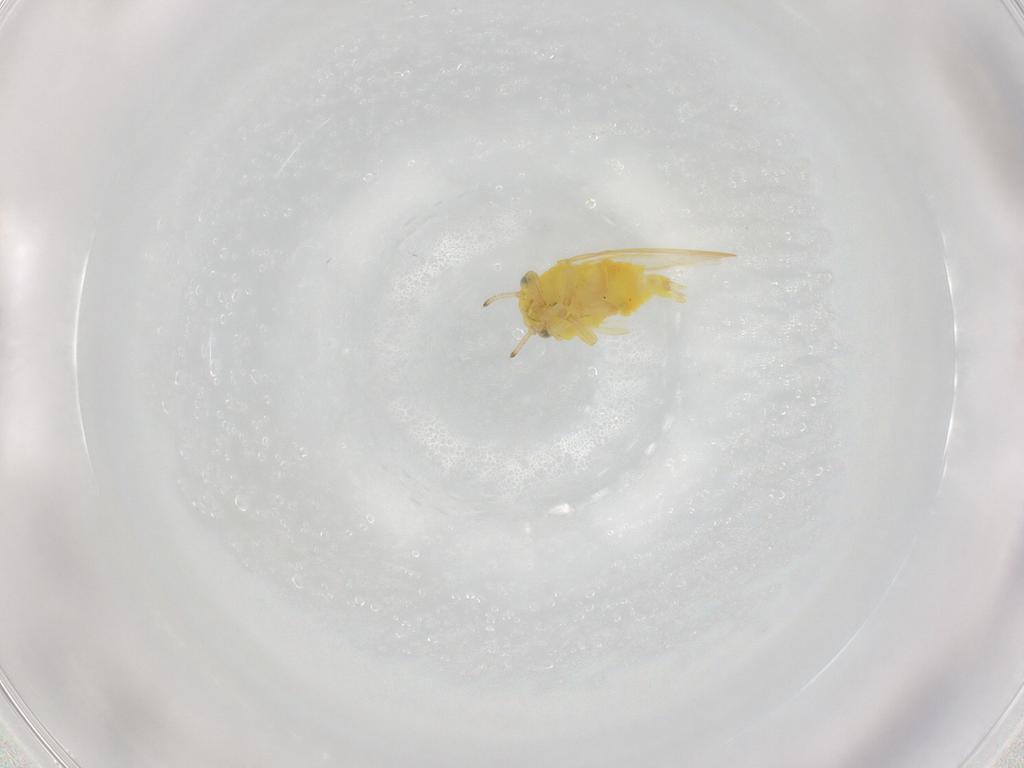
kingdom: Animalia
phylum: Arthropoda
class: Insecta
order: Hemiptera
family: Aphalaridae
